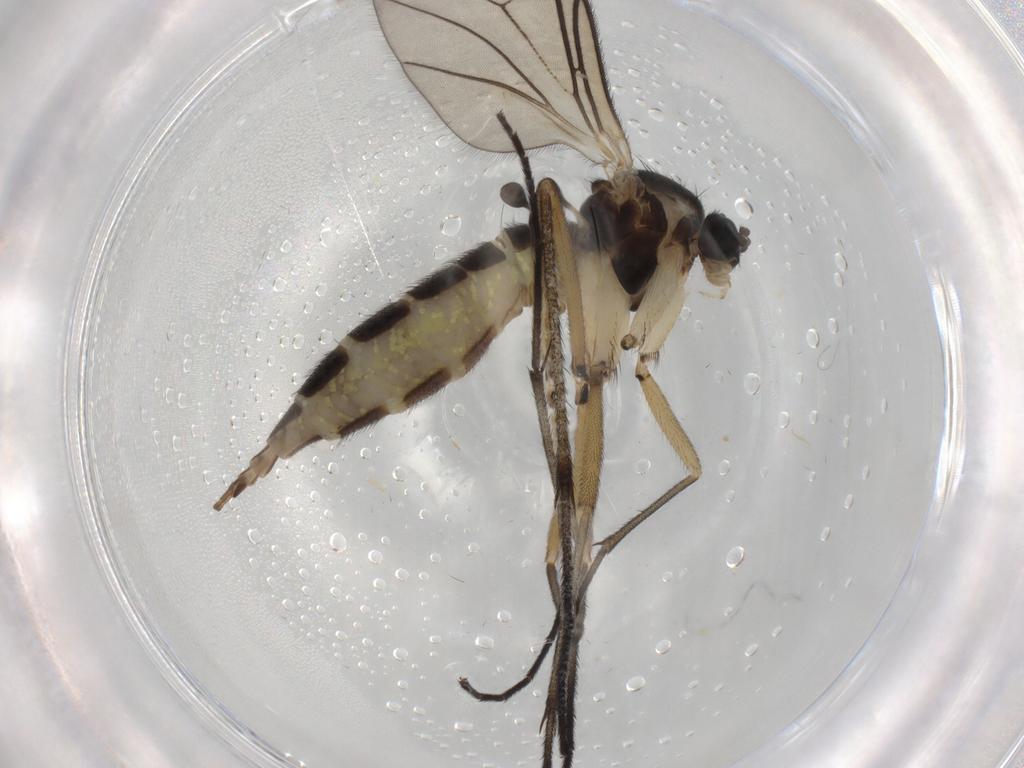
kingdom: Animalia
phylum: Arthropoda
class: Insecta
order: Diptera
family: Sciaridae
